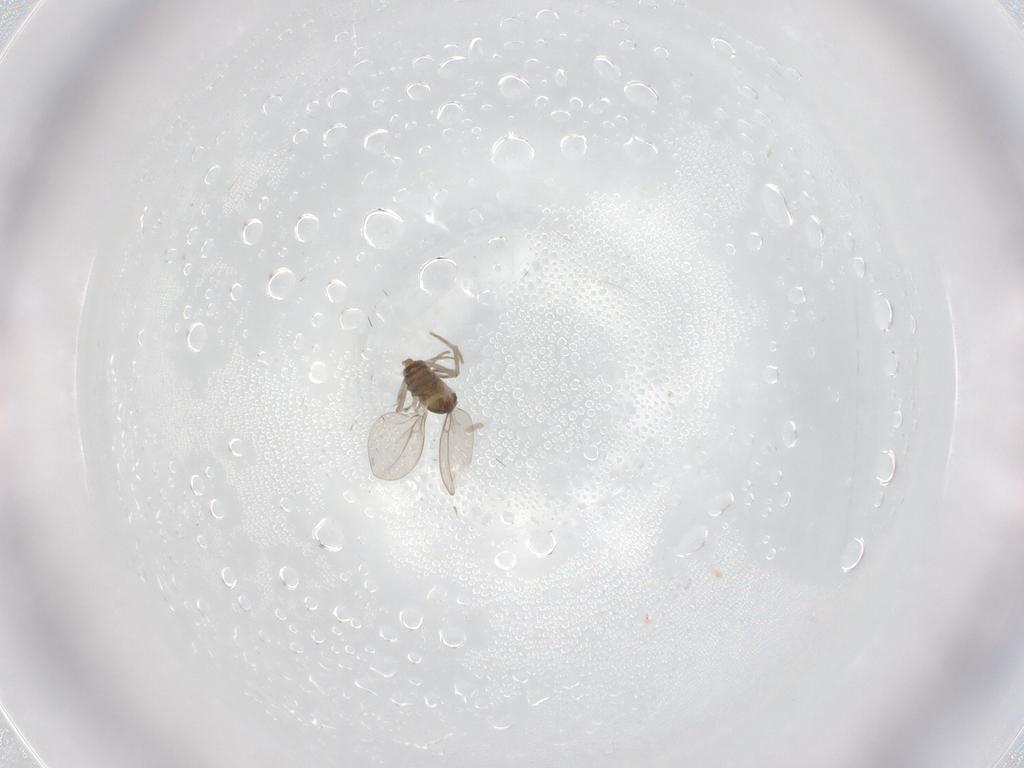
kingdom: Animalia
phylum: Arthropoda
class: Insecta
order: Diptera
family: Cecidomyiidae
